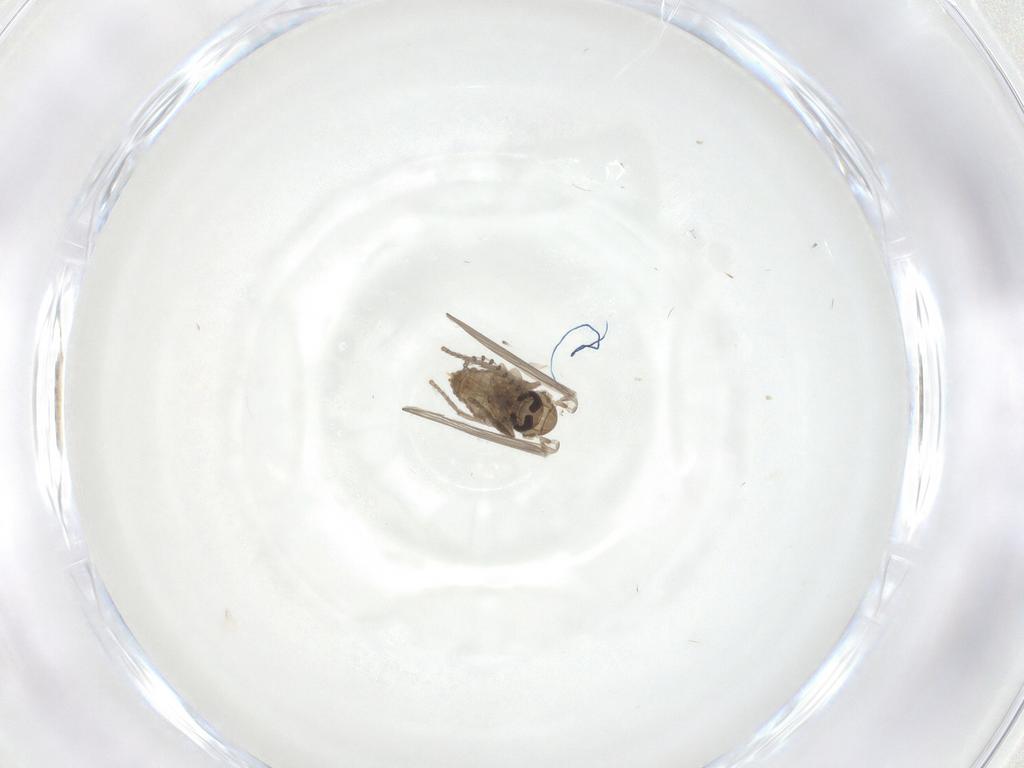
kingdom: Animalia
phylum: Arthropoda
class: Insecta
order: Diptera
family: Psychodidae
